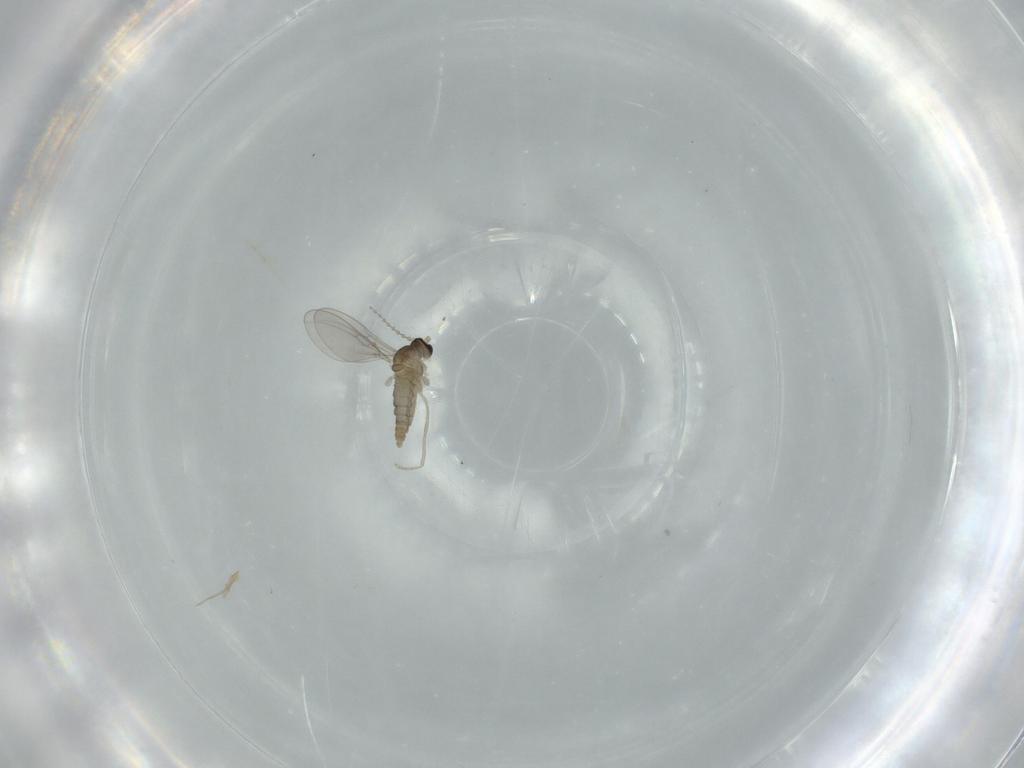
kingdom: Animalia
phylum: Arthropoda
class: Insecta
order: Diptera
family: Cecidomyiidae
